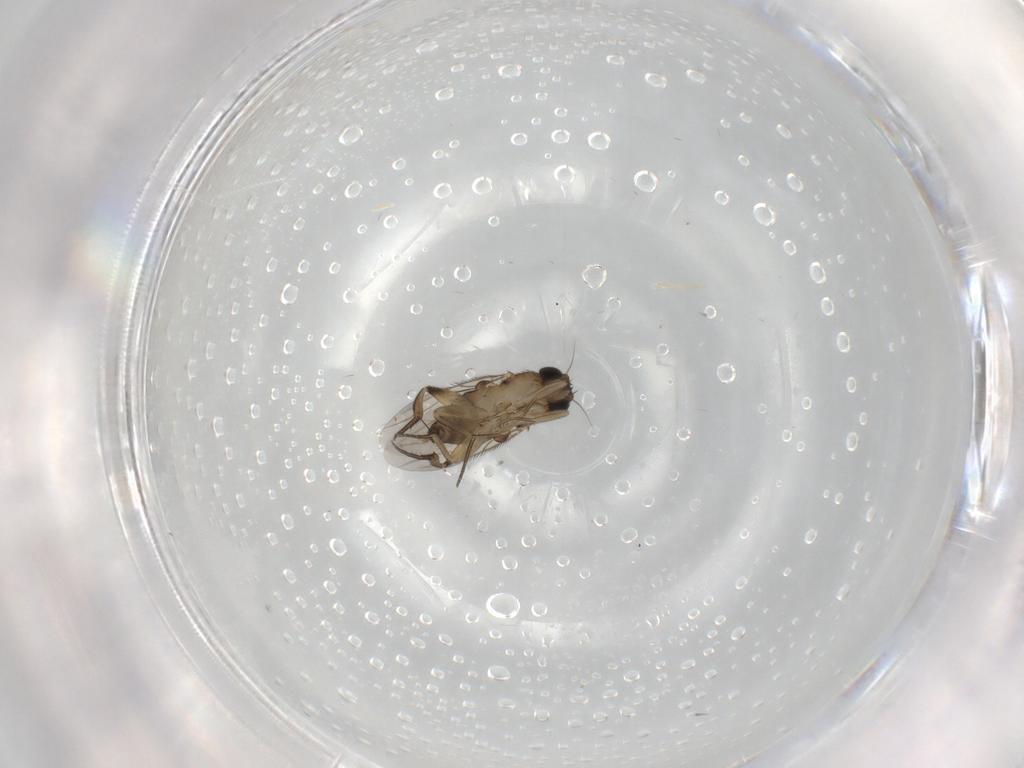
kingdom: Animalia
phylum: Arthropoda
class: Insecta
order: Diptera
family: Phoridae
